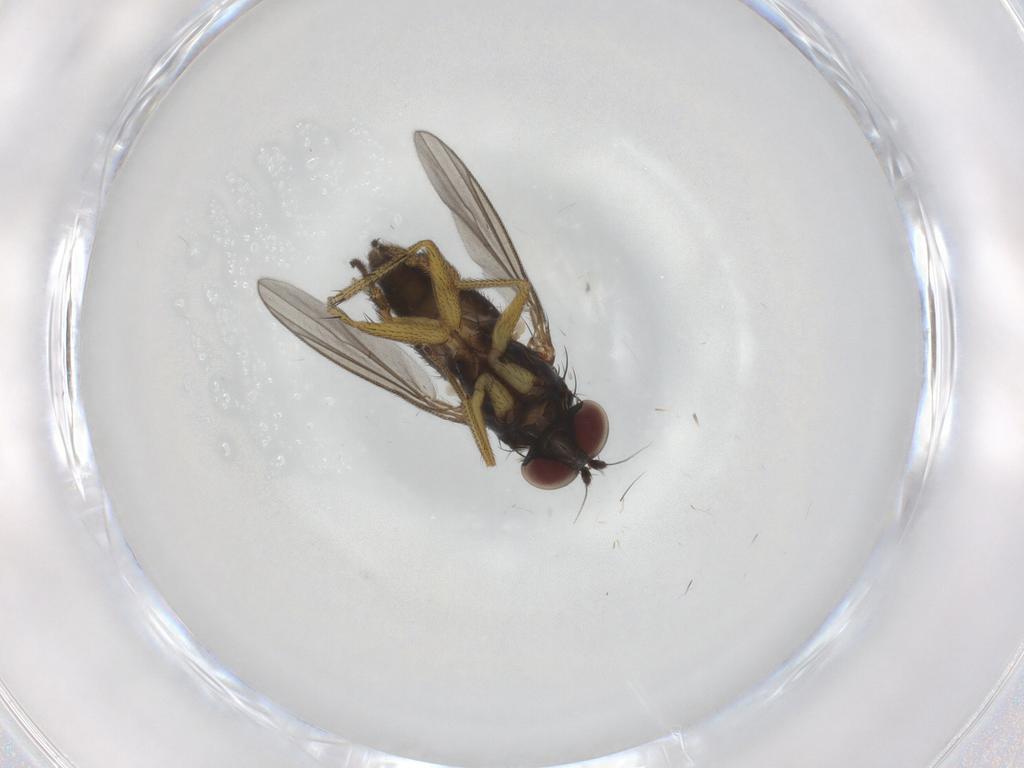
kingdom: Animalia
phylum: Arthropoda
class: Insecta
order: Diptera
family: Dolichopodidae
